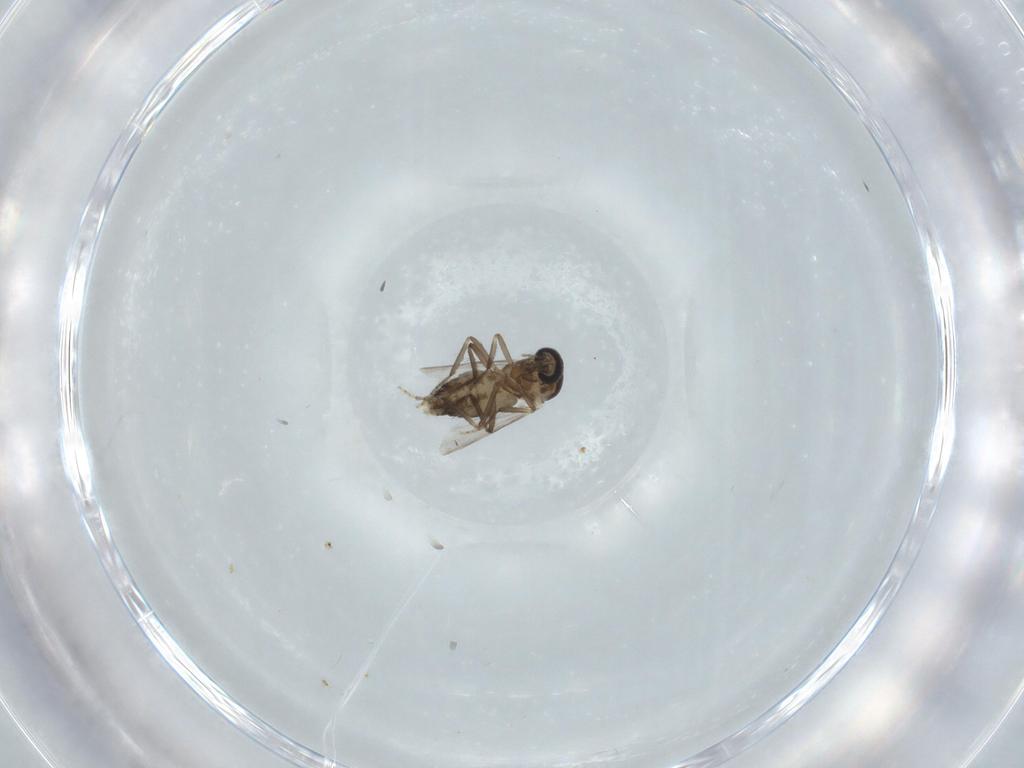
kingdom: Animalia
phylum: Arthropoda
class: Insecta
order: Diptera
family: Ceratopogonidae
